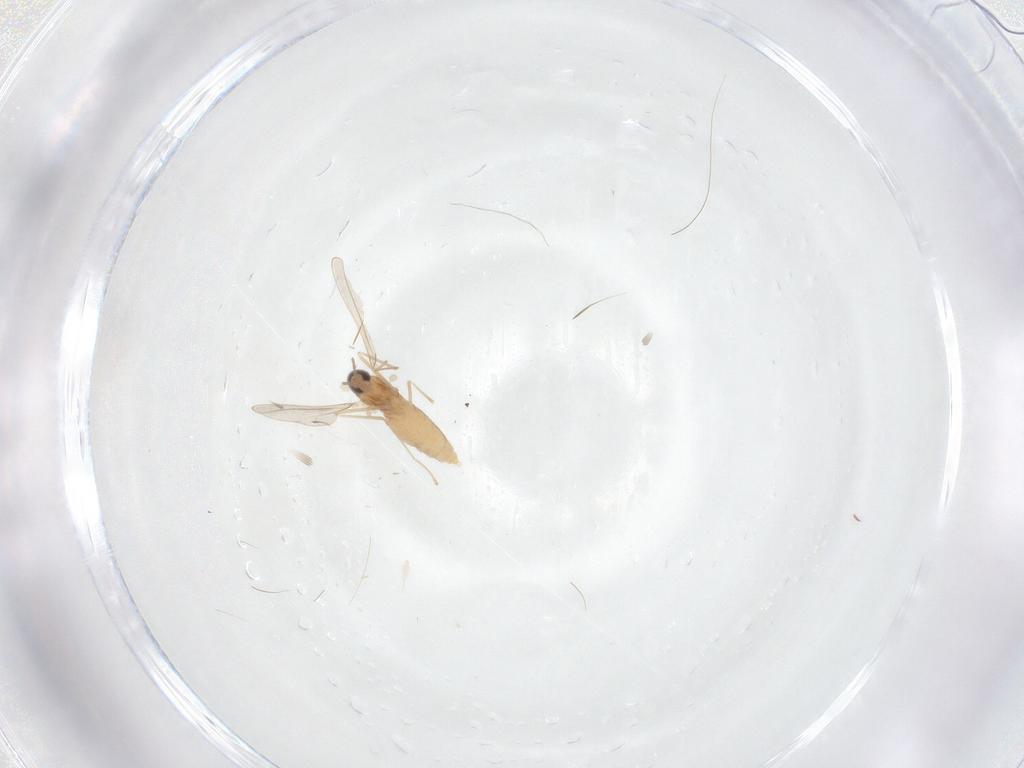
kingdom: Animalia
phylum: Arthropoda
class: Insecta
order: Diptera
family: Cecidomyiidae
